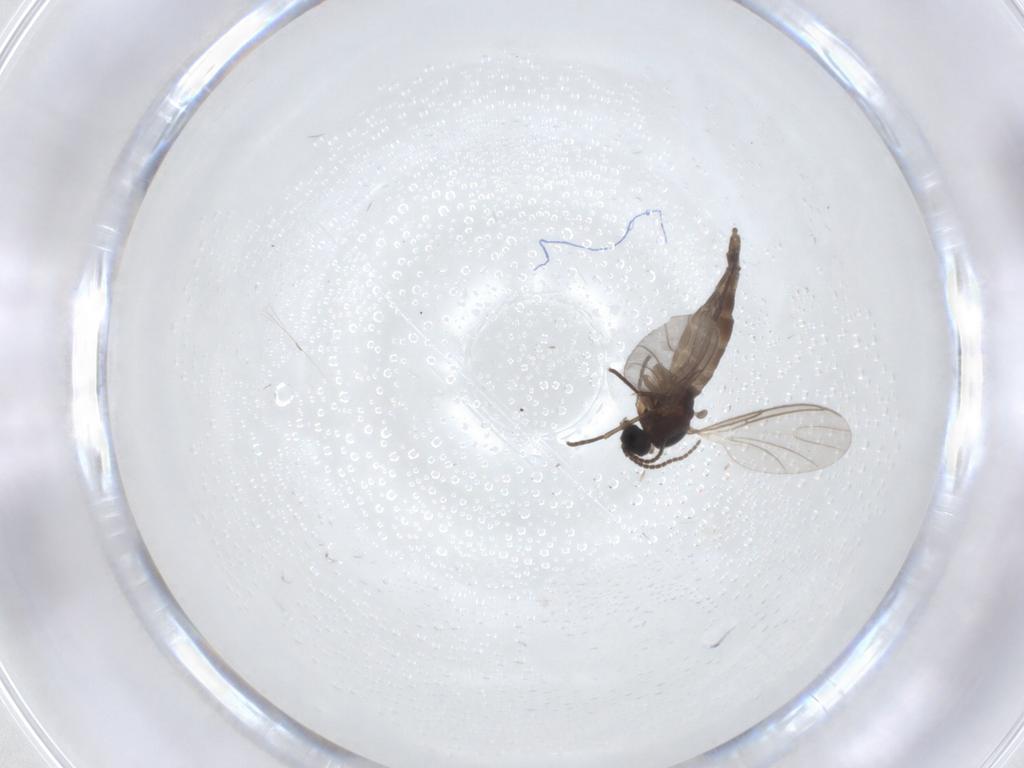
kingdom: Animalia
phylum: Arthropoda
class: Insecta
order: Diptera
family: Sciaridae
